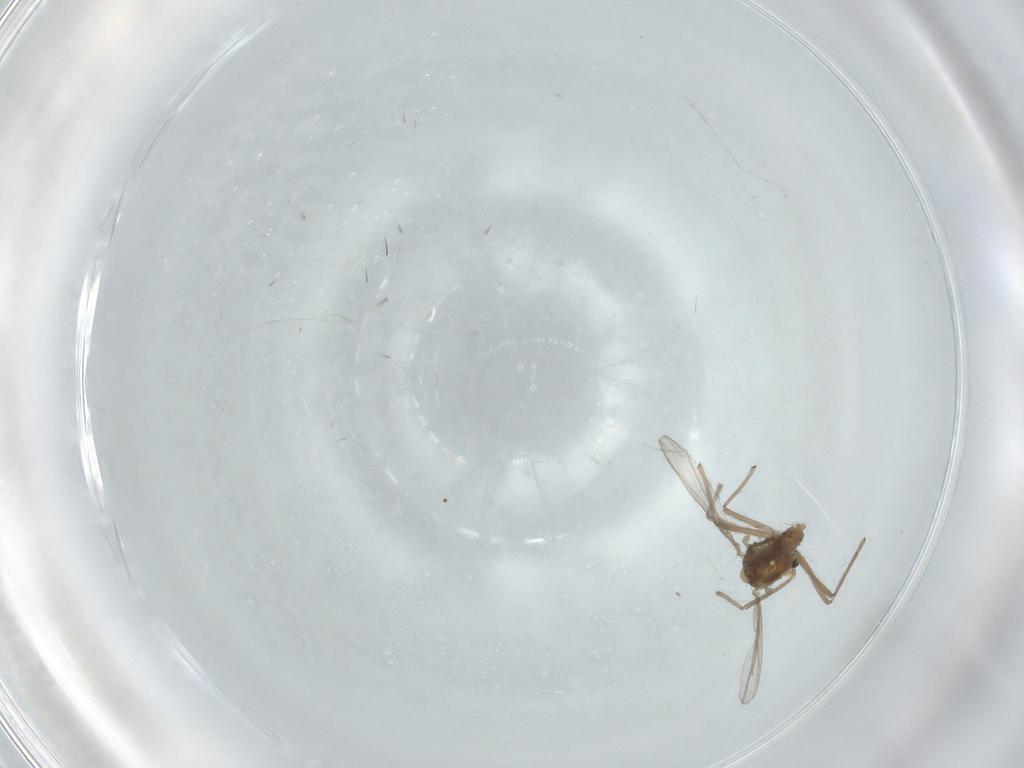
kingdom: Animalia
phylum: Arthropoda
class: Insecta
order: Diptera
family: Chironomidae
